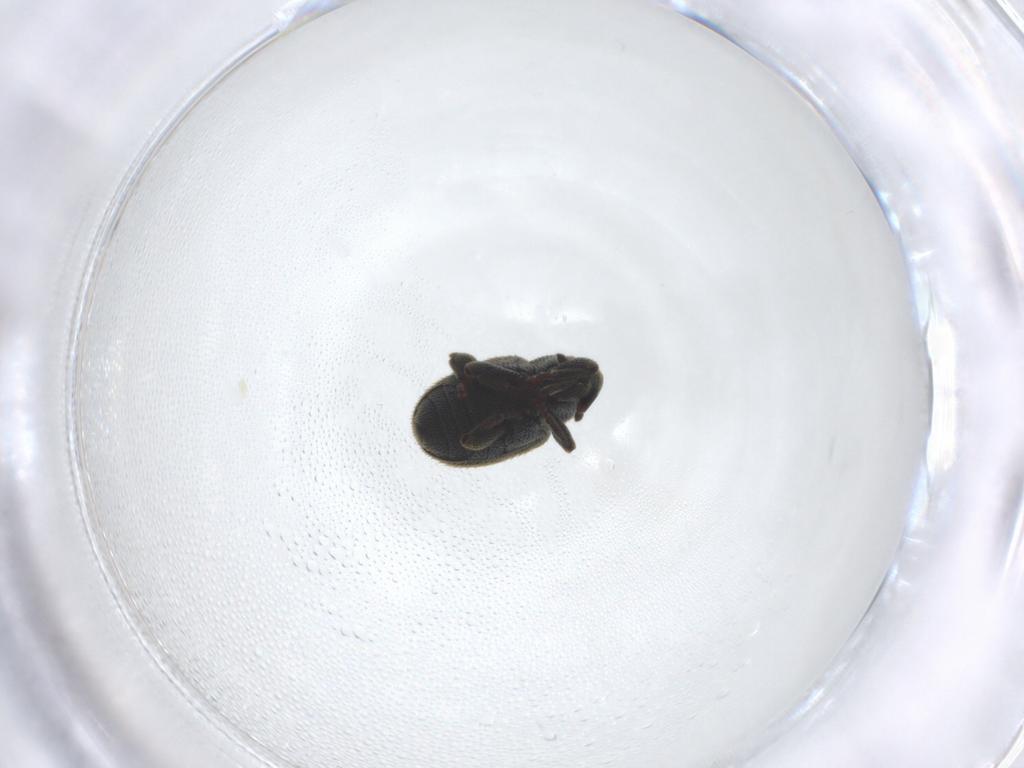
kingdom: Animalia
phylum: Arthropoda
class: Insecta
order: Coleoptera
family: Curculionidae
